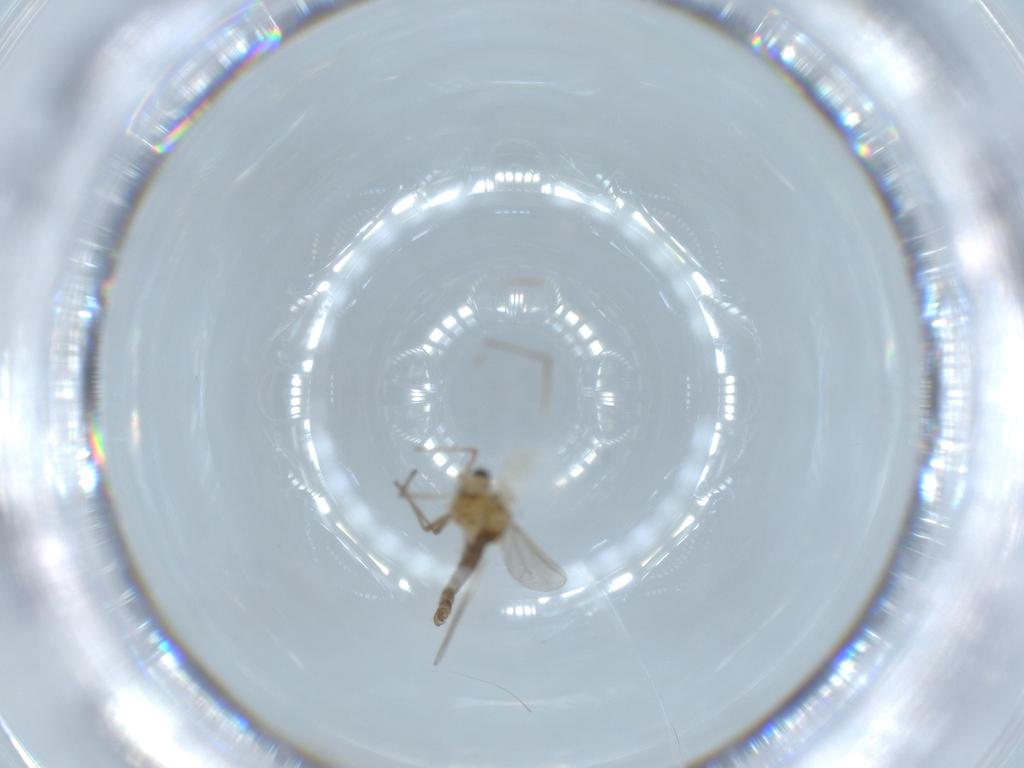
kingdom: Animalia
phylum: Arthropoda
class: Insecta
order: Diptera
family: Chironomidae
